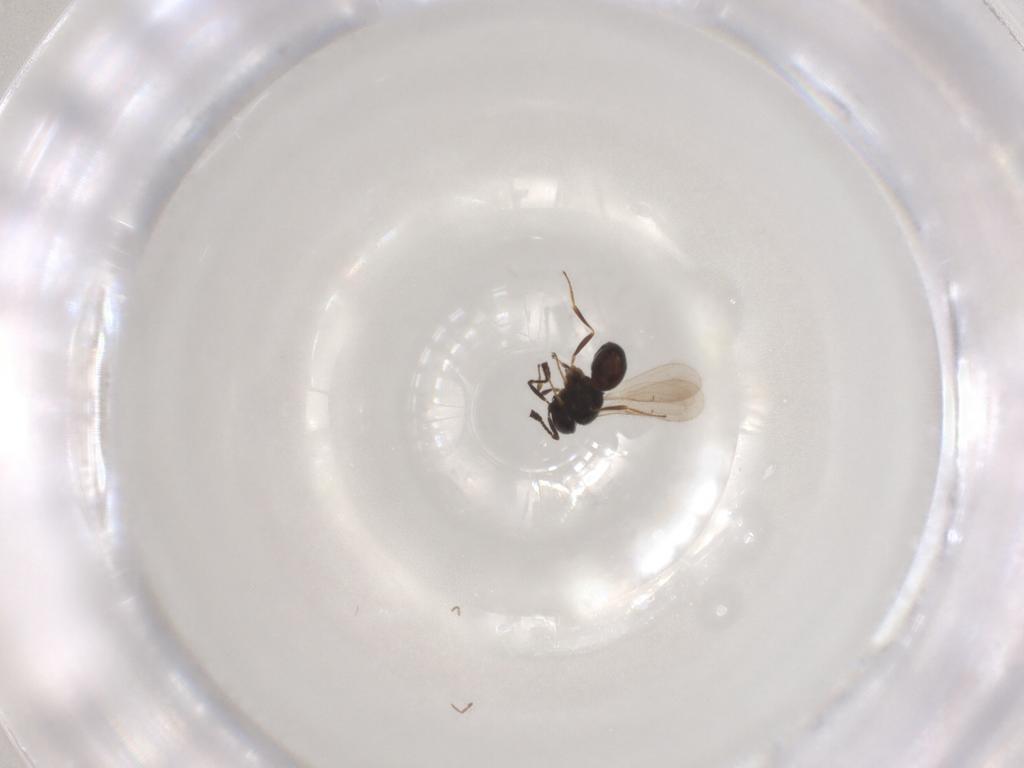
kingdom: Animalia
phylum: Arthropoda
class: Insecta
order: Hymenoptera
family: Scelionidae
